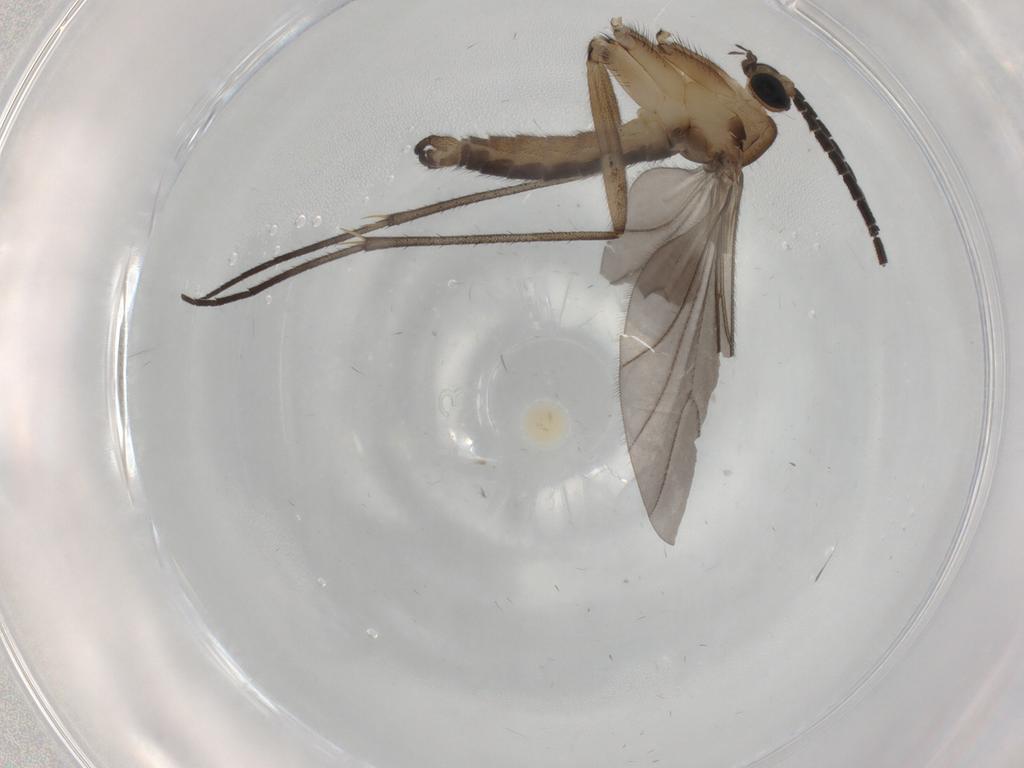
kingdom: Animalia
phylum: Arthropoda
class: Insecta
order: Diptera
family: Sciaridae
